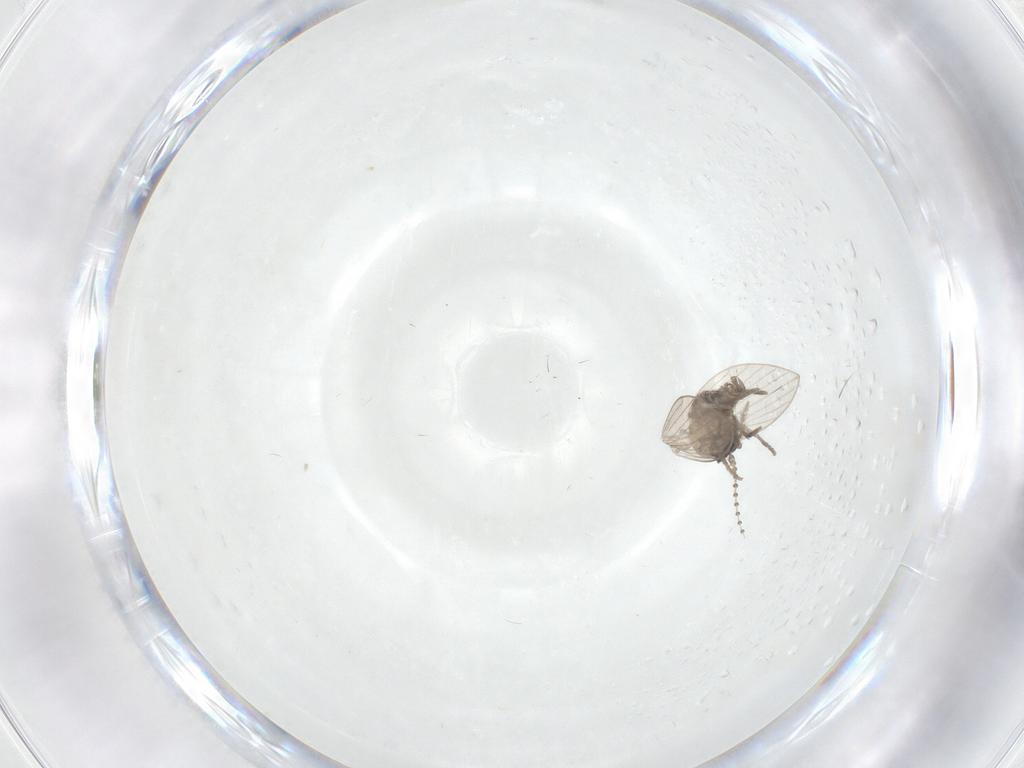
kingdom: Animalia
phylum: Arthropoda
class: Insecta
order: Diptera
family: Psychodidae
